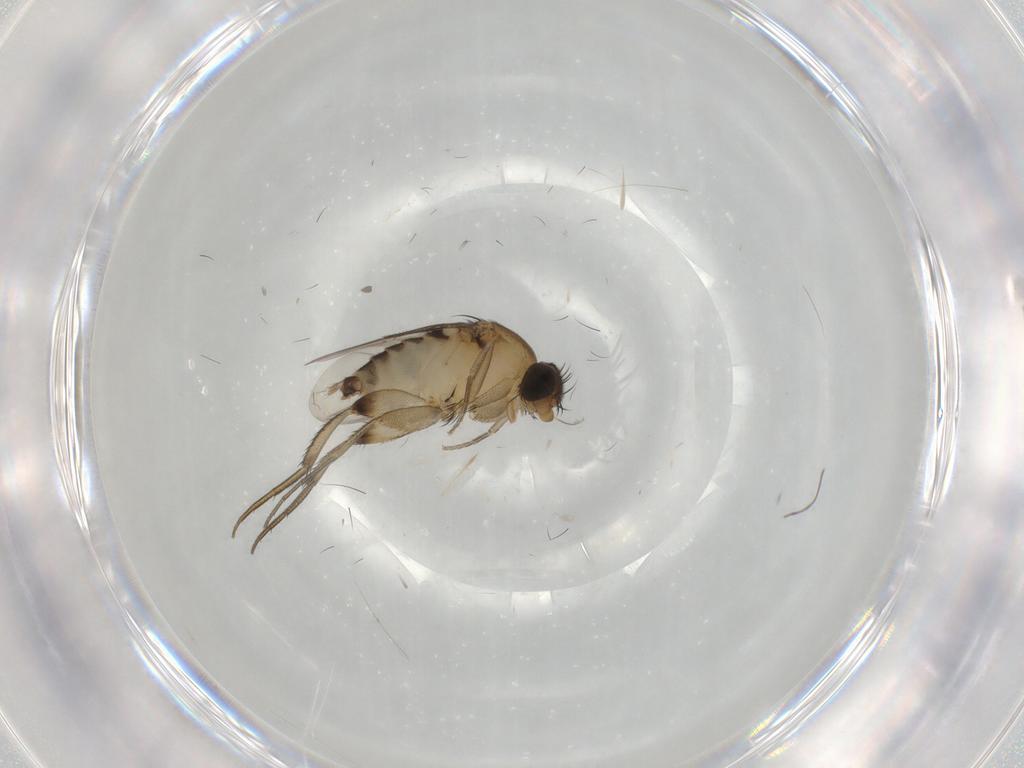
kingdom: Animalia
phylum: Arthropoda
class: Insecta
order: Diptera
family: Phoridae
